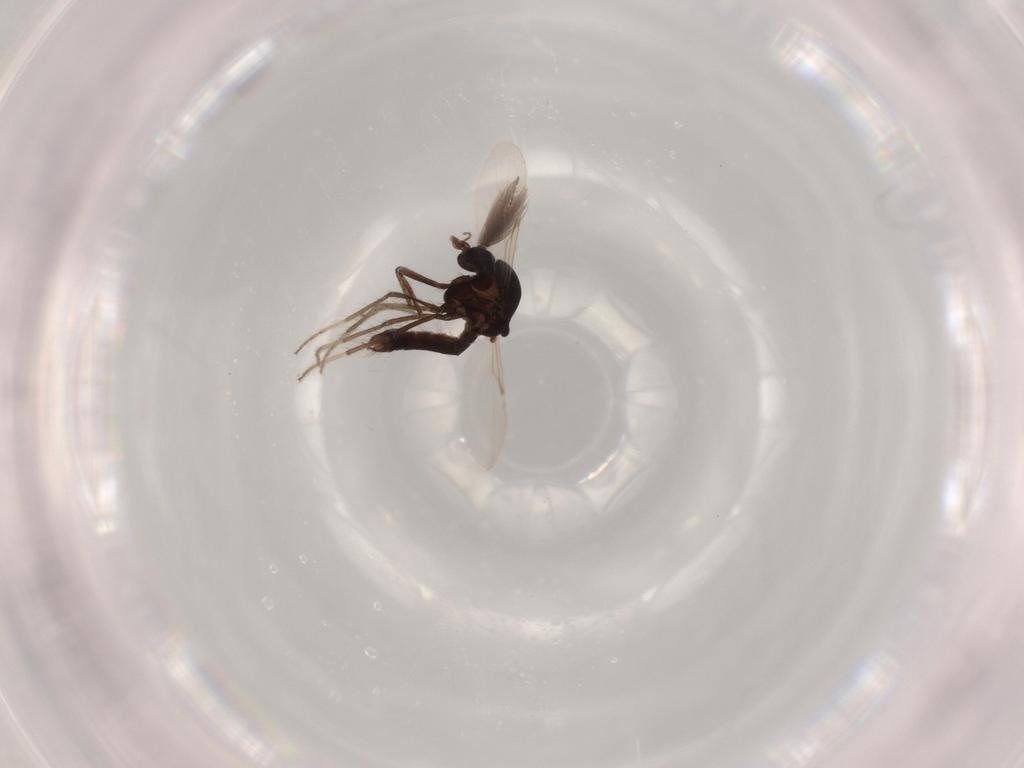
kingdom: Animalia
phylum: Arthropoda
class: Insecta
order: Diptera
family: Chironomidae
